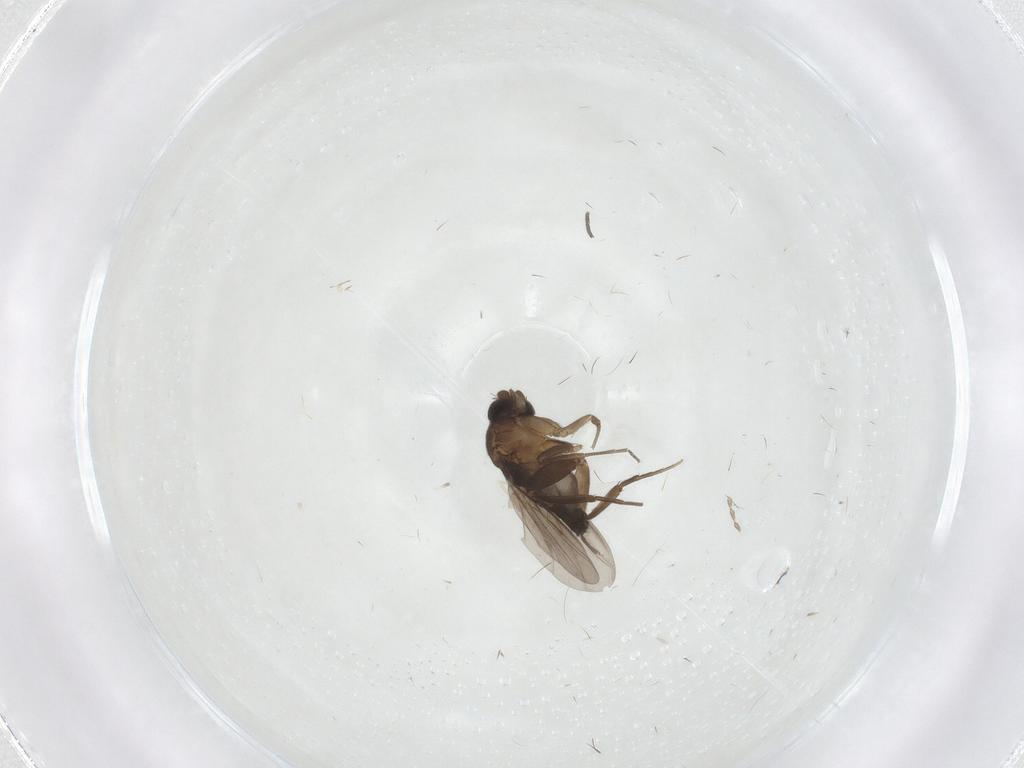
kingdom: Animalia
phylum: Arthropoda
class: Insecta
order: Diptera
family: Phoridae
